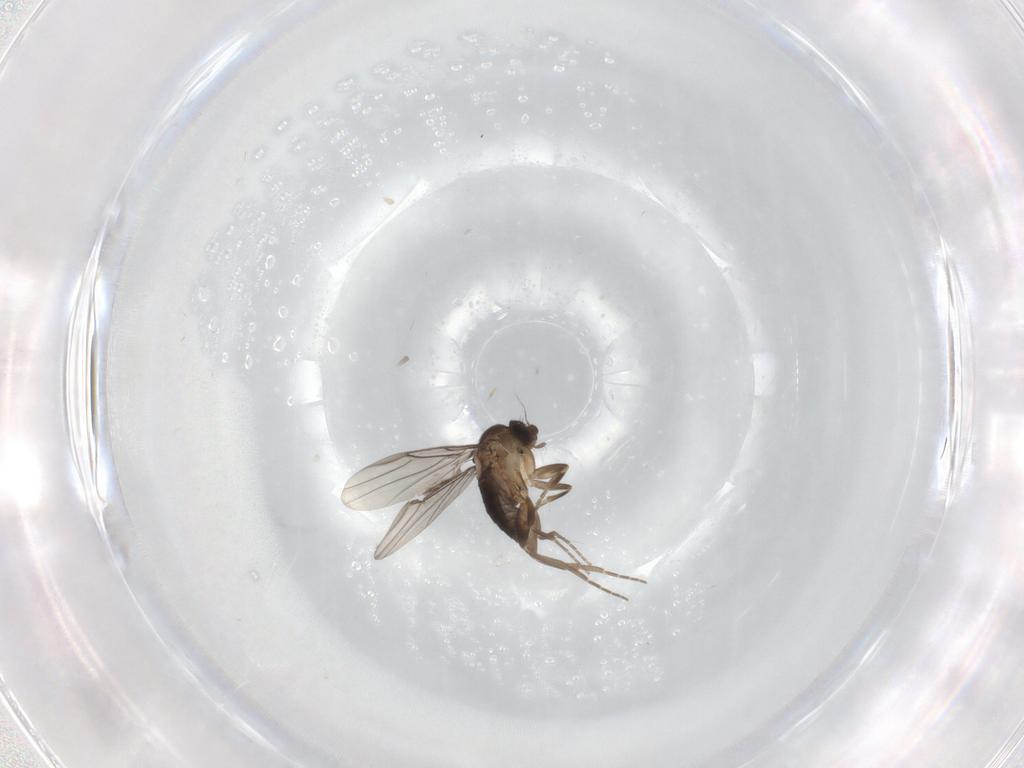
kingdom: Animalia
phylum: Arthropoda
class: Insecta
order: Diptera
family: Phoridae
